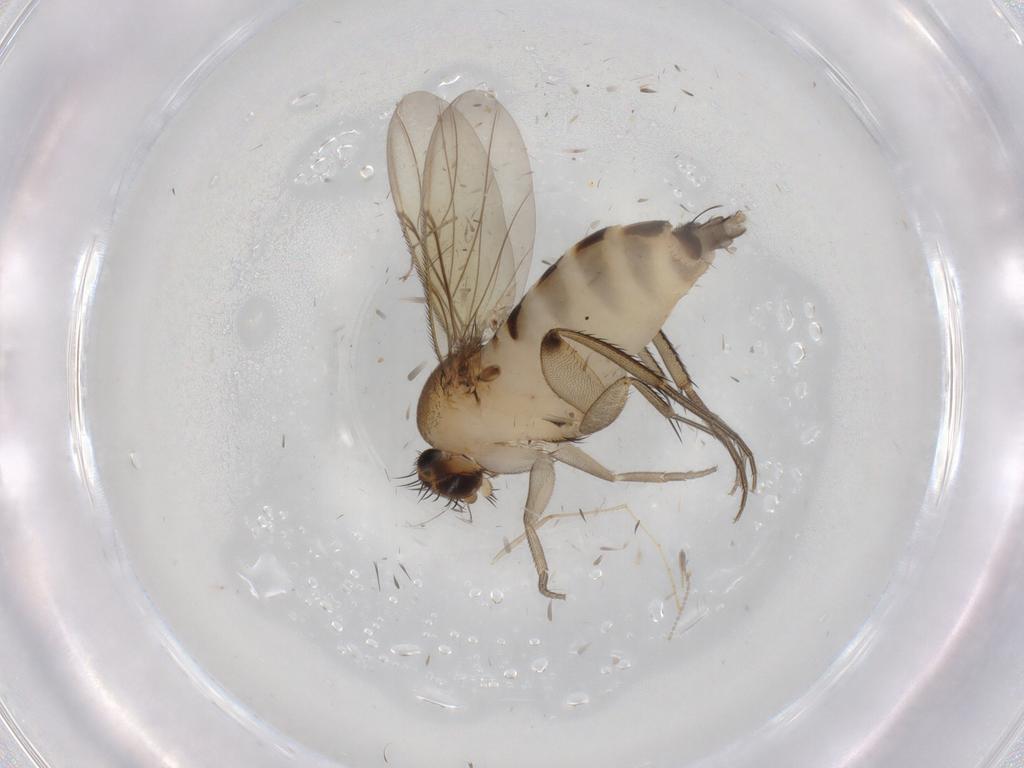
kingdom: Animalia
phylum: Arthropoda
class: Insecta
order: Diptera
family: Phoridae
